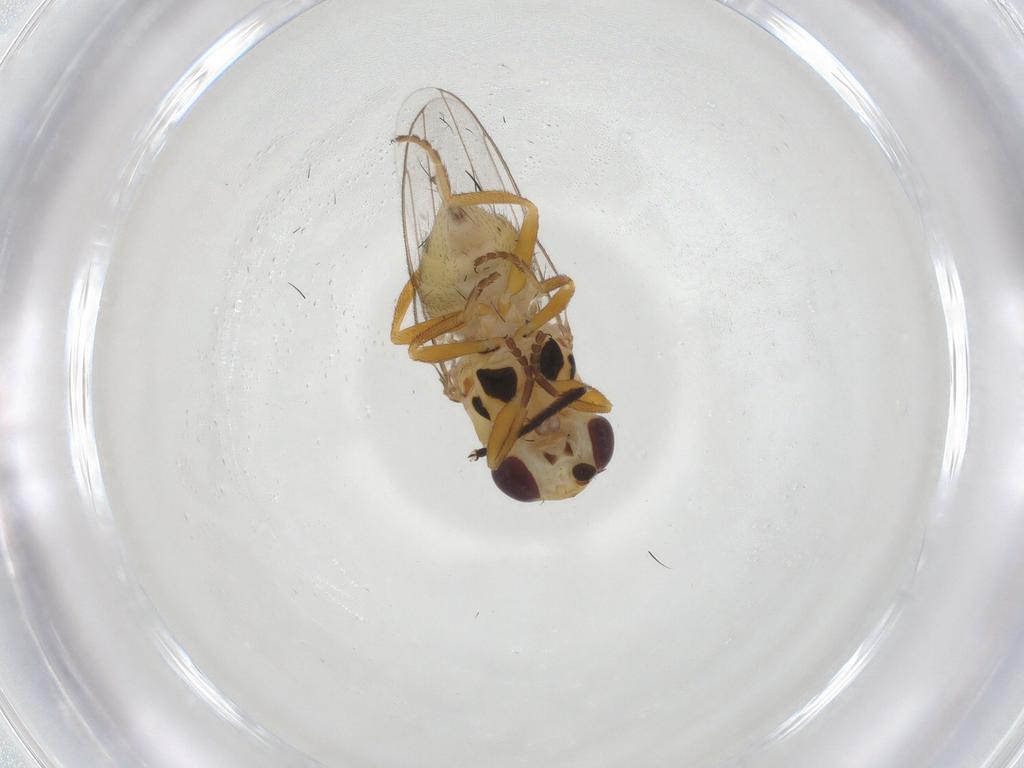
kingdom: Animalia
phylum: Arthropoda
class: Insecta
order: Diptera
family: Chloropidae
